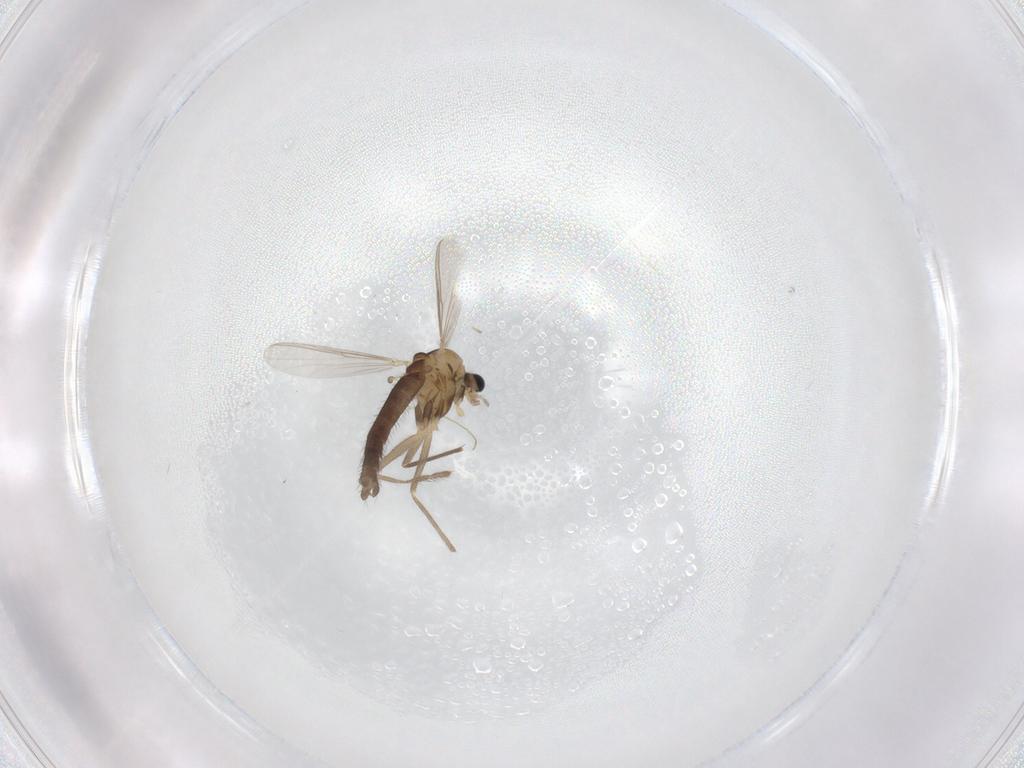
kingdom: Animalia
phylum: Arthropoda
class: Insecta
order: Diptera
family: Chironomidae
